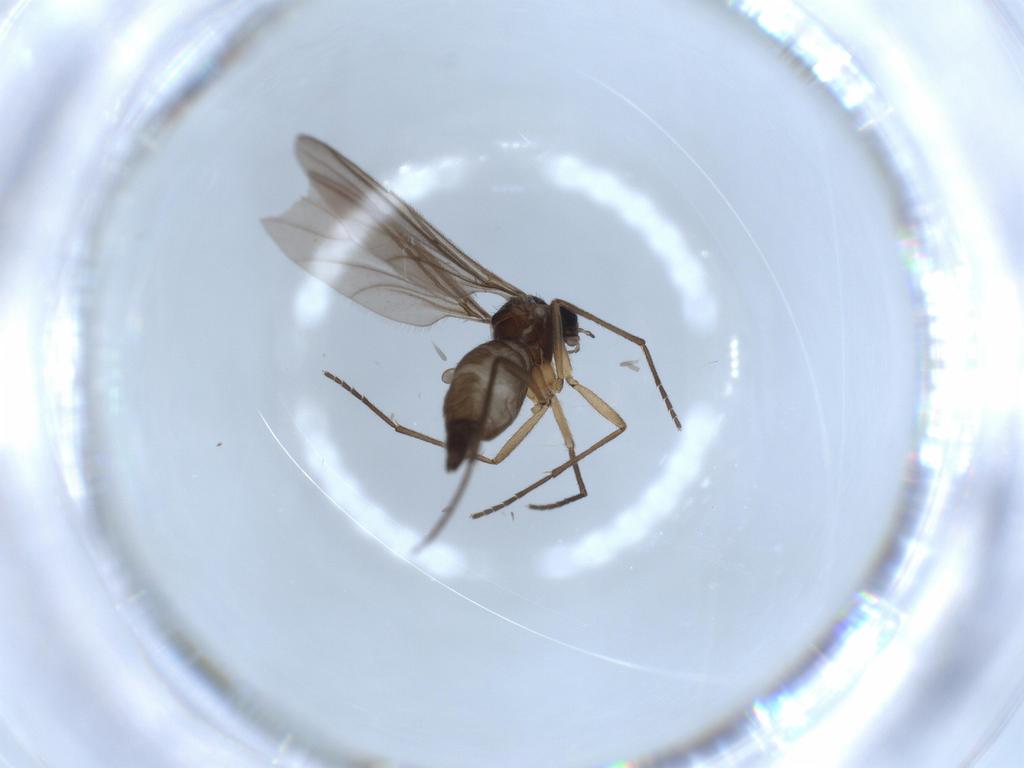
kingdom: Animalia
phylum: Arthropoda
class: Insecta
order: Diptera
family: Sciaridae
